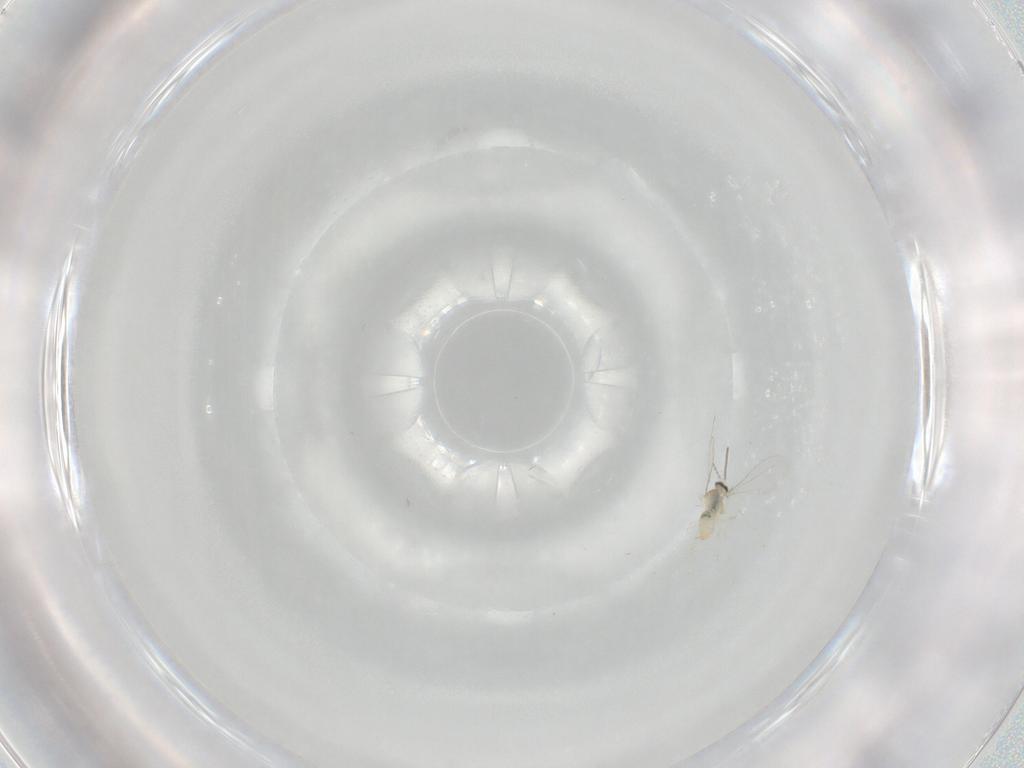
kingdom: Animalia
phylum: Arthropoda
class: Insecta
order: Diptera
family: Cecidomyiidae
